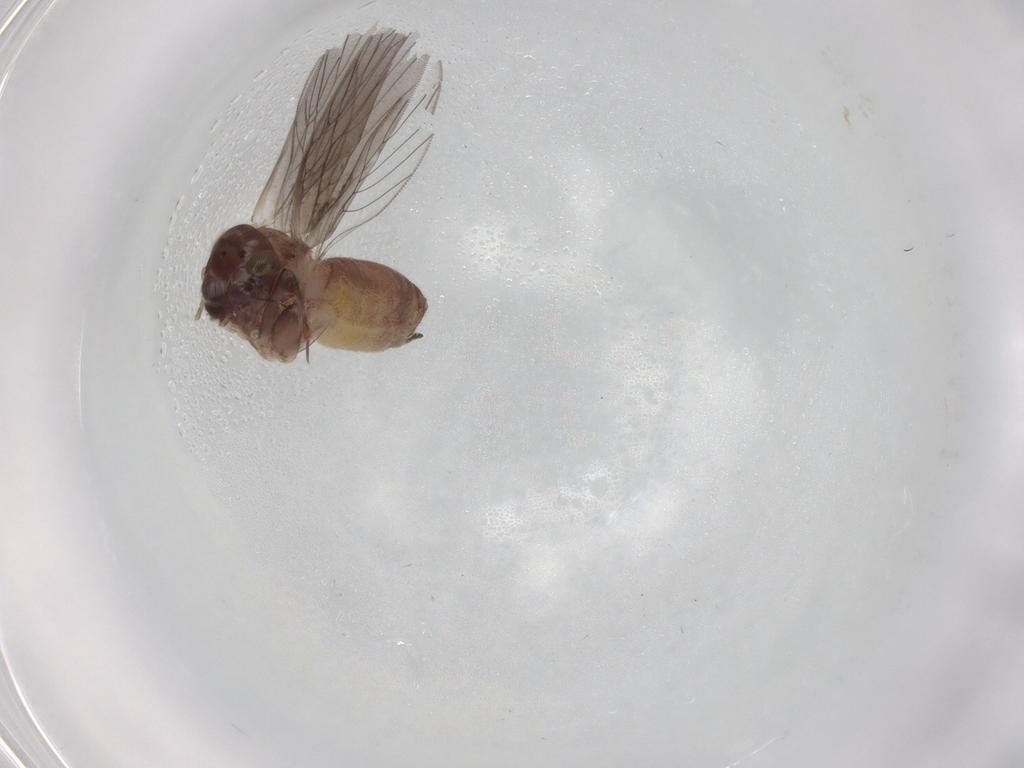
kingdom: Animalia
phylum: Arthropoda
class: Insecta
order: Psocodea
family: Lepidopsocidae
